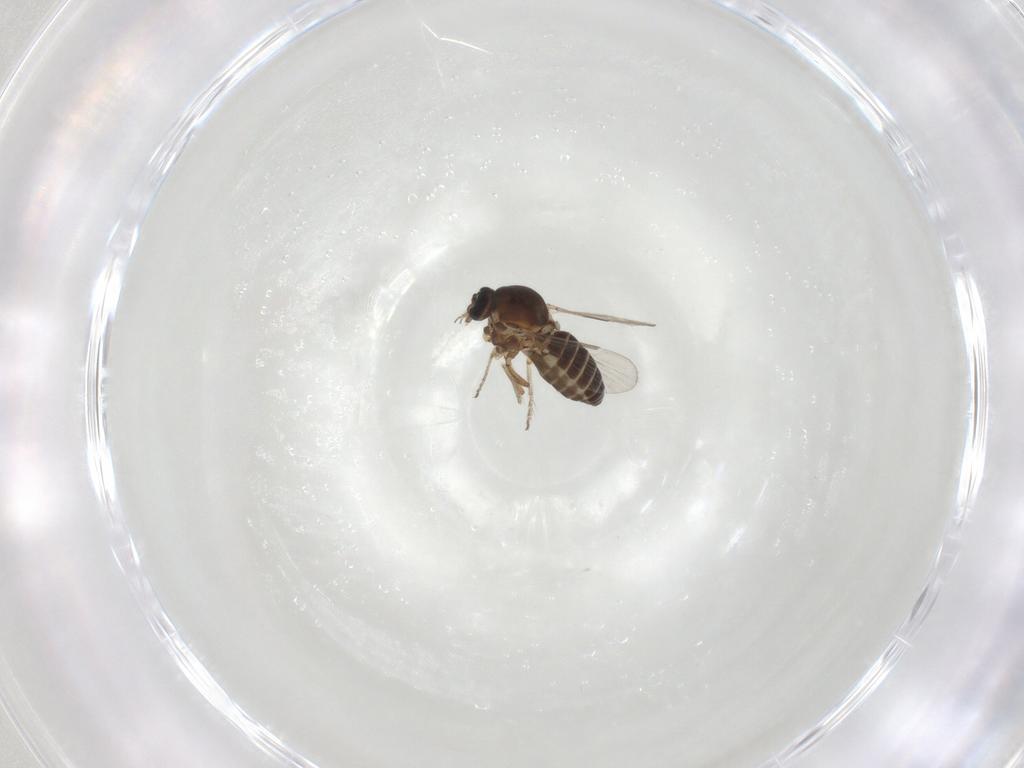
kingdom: Animalia
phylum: Arthropoda
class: Insecta
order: Diptera
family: Ceratopogonidae
